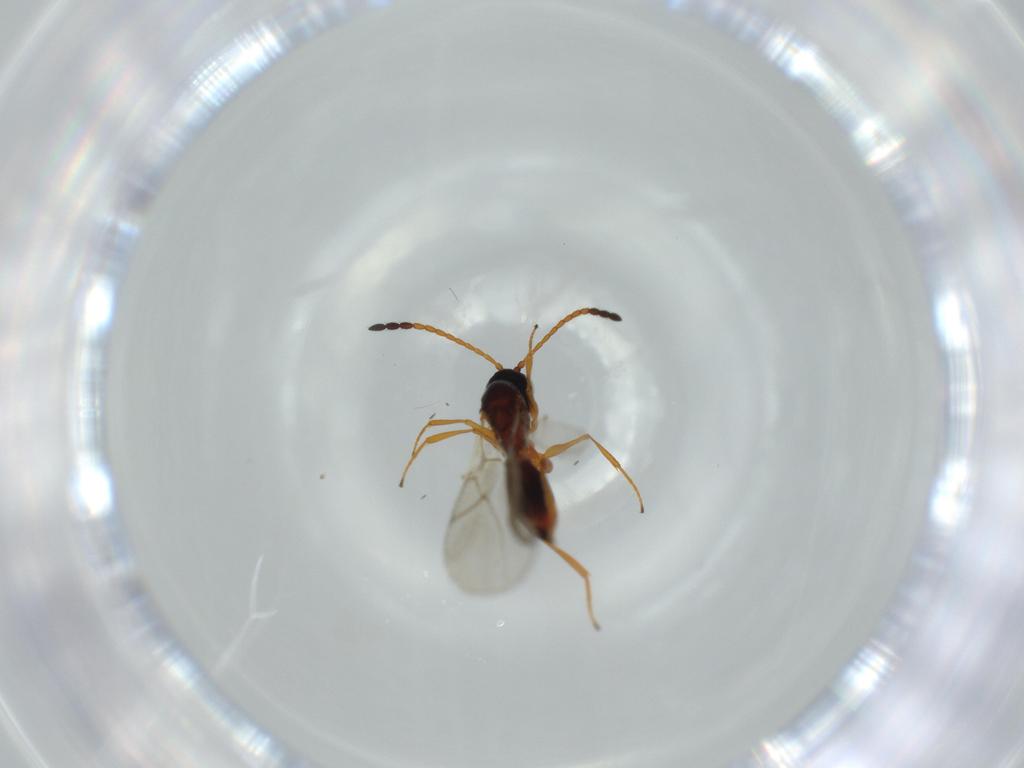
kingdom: Animalia
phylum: Arthropoda
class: Insecta
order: Hymenoptera
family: Figitidae
